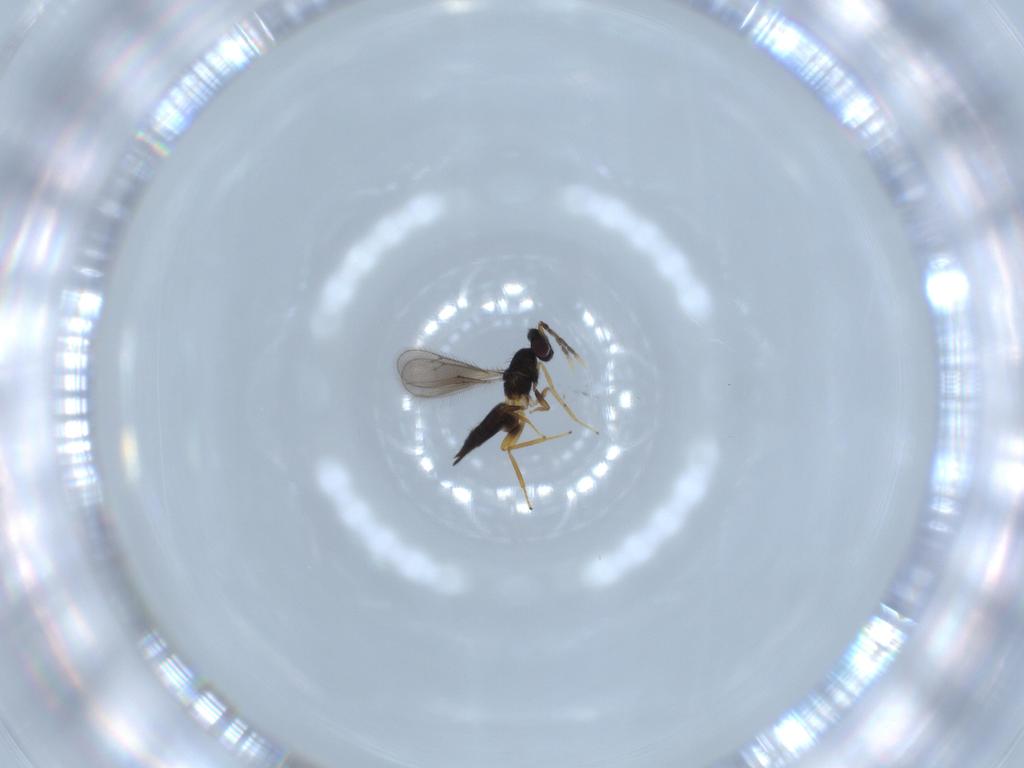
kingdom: Animalia
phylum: Arthropoda
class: Insecta
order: Hymenoptera
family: Eulophidae
